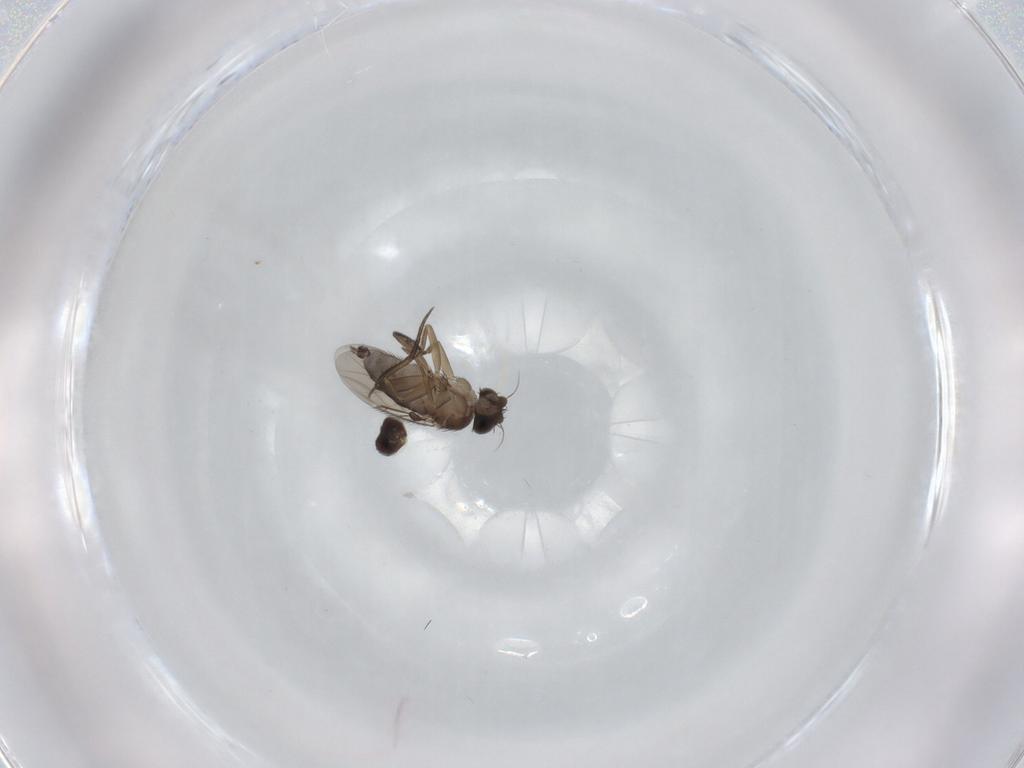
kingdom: Animalia
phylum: Arthropoda
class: Insecta
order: Diptera
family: Phoridae
